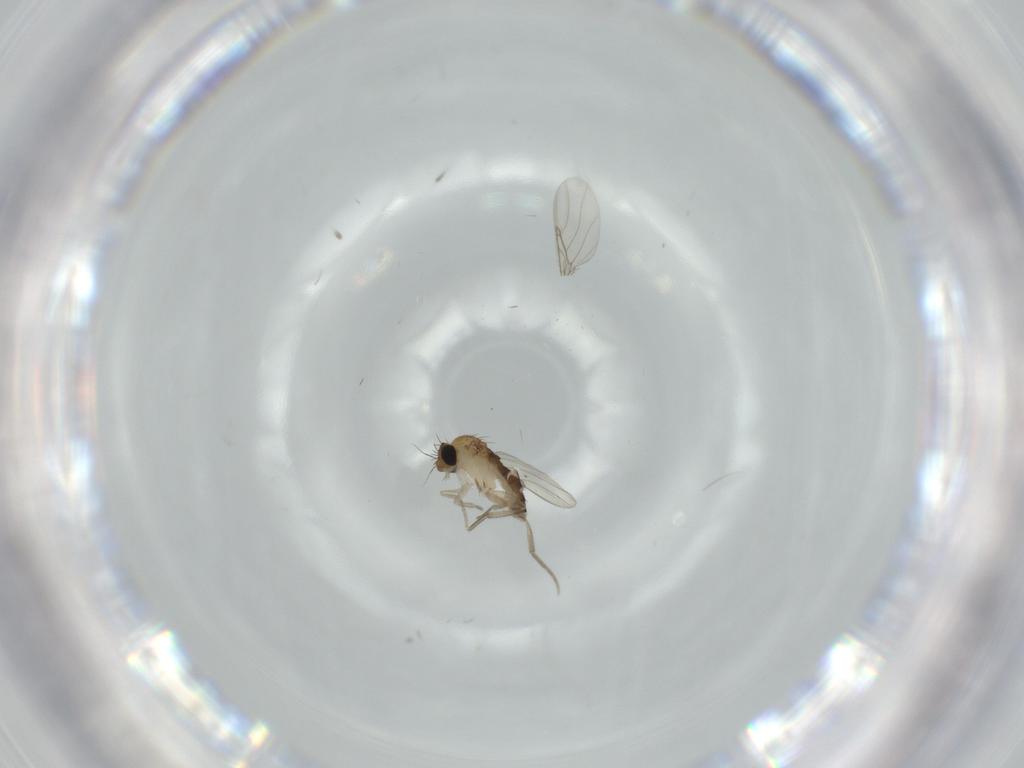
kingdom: Animalia
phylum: Arthropoda
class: Insecta
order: Diptera
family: Phoridae
